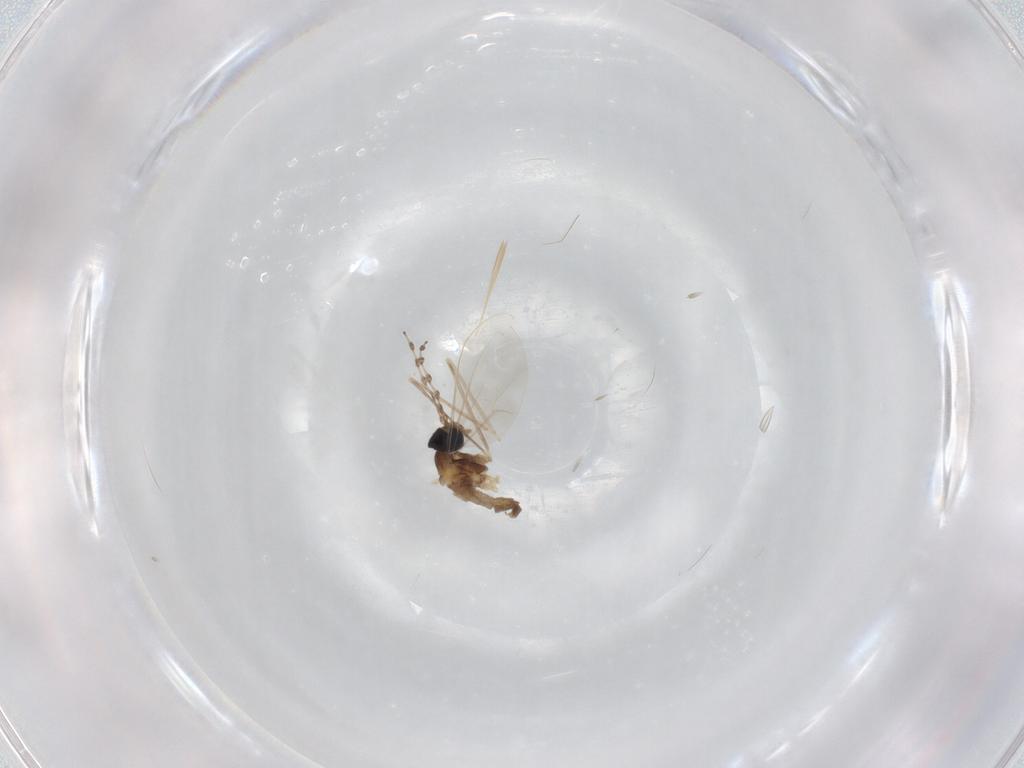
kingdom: Animalia
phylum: Arthropoda
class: Insecta
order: Diptera
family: Cecidomyiidae
